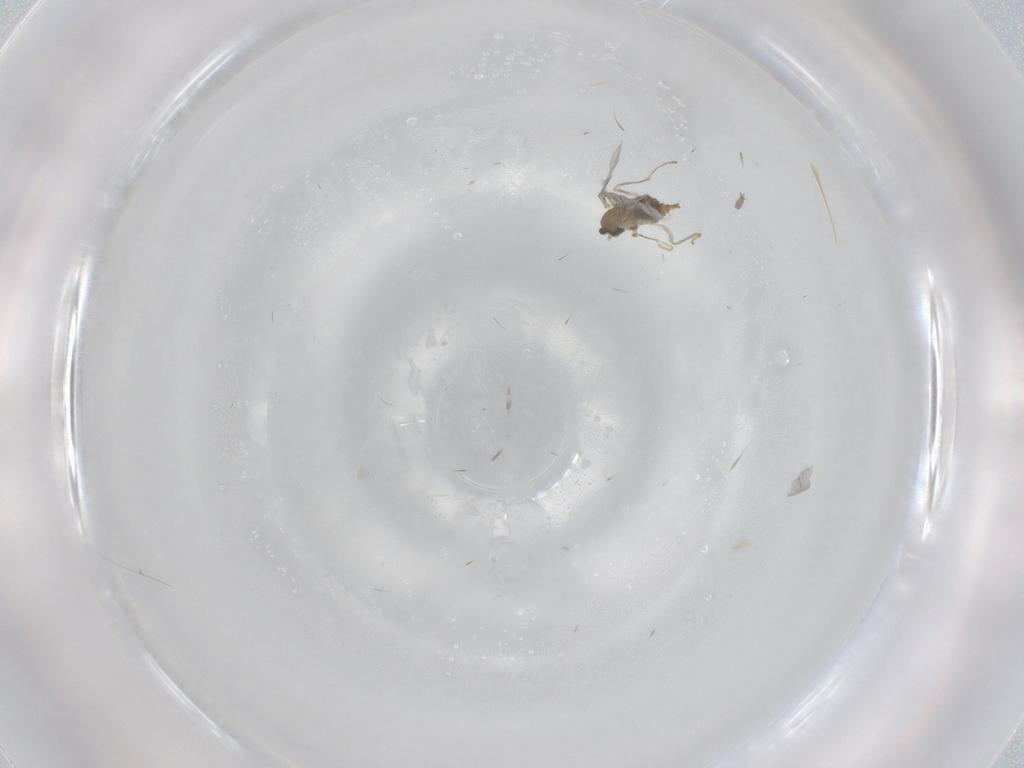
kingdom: Animalia
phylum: Arthropoda
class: Insecta
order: Diptera
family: Cecidomyiidae
